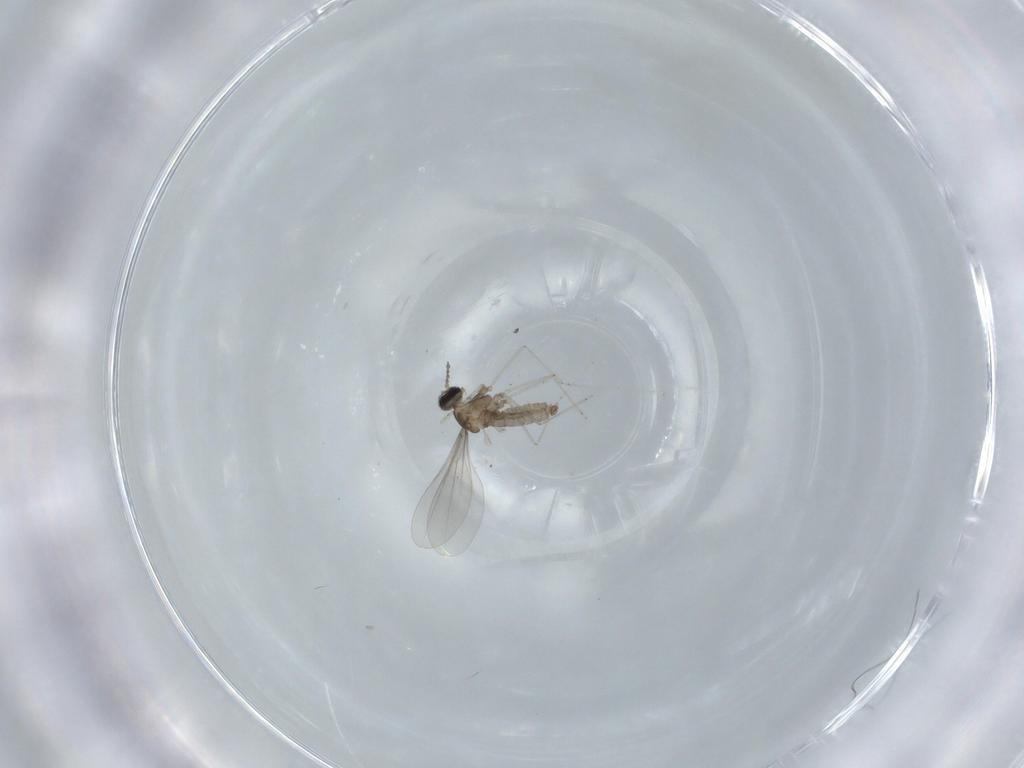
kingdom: Animalia
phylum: Arthropoda
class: Insecta
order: Diptera
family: Cecidomyiidae
